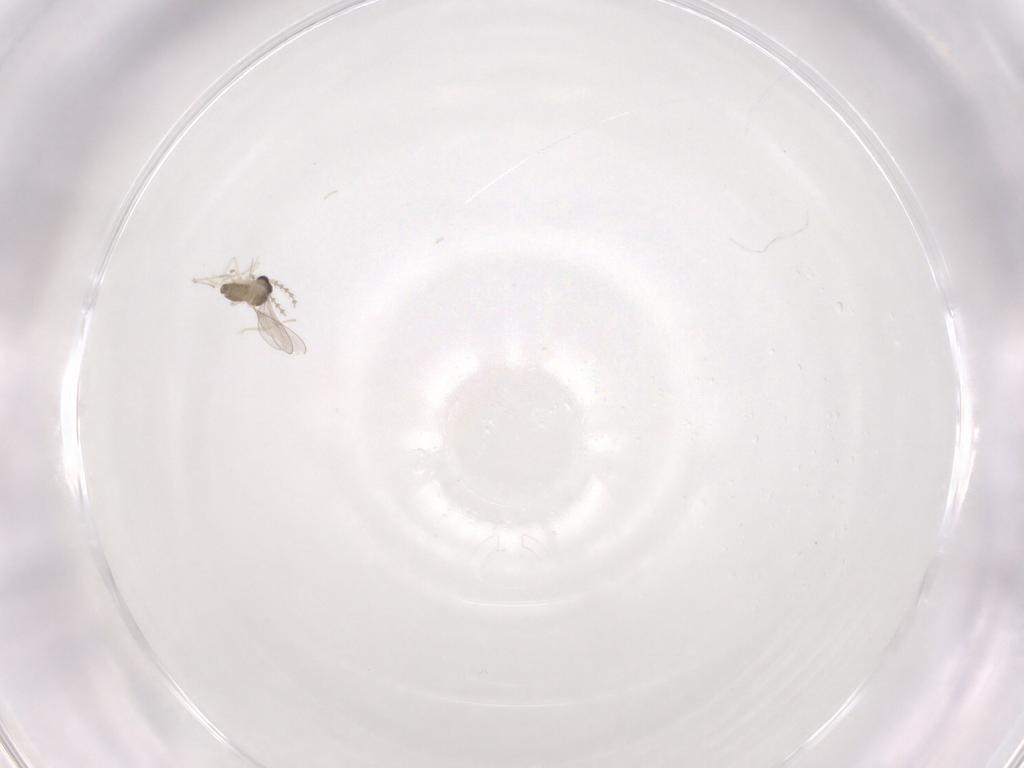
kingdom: Animalia
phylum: Arthropoda
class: Insecta
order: Diptera
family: Cecidomyiidae
